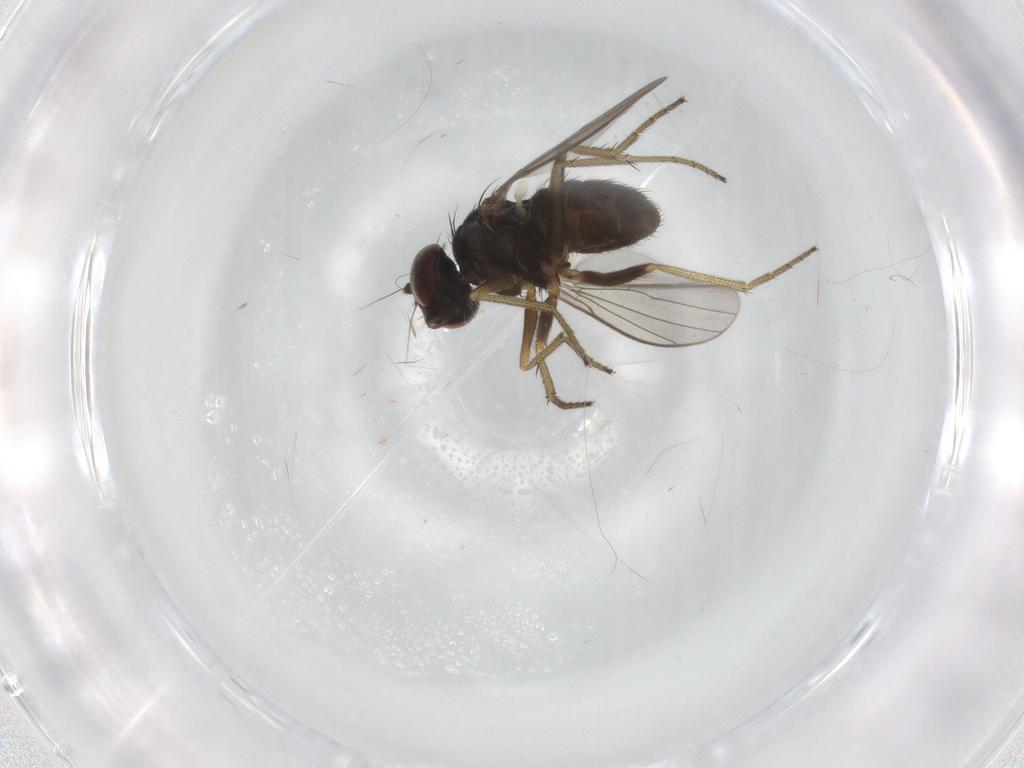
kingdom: Animalia
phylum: Arthropoda
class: Insecta
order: Diptera
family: Dolichopodidae
